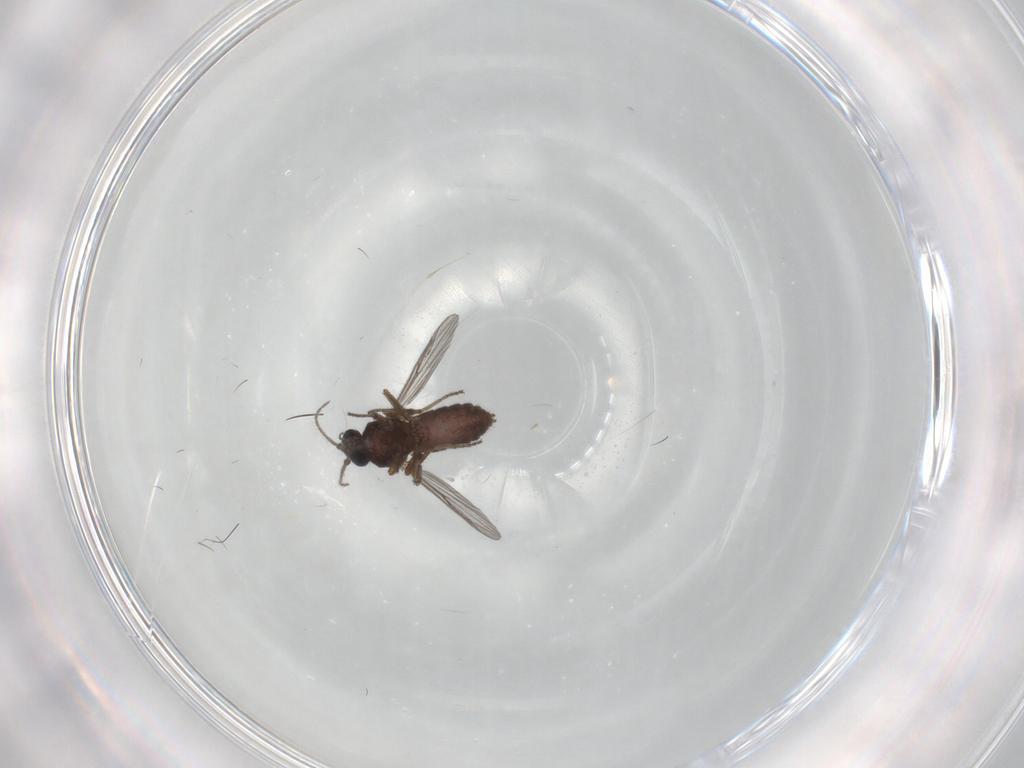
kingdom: Animalia
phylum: Arthropoda
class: Insecta
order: Diptera
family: Ceratopogonidae
